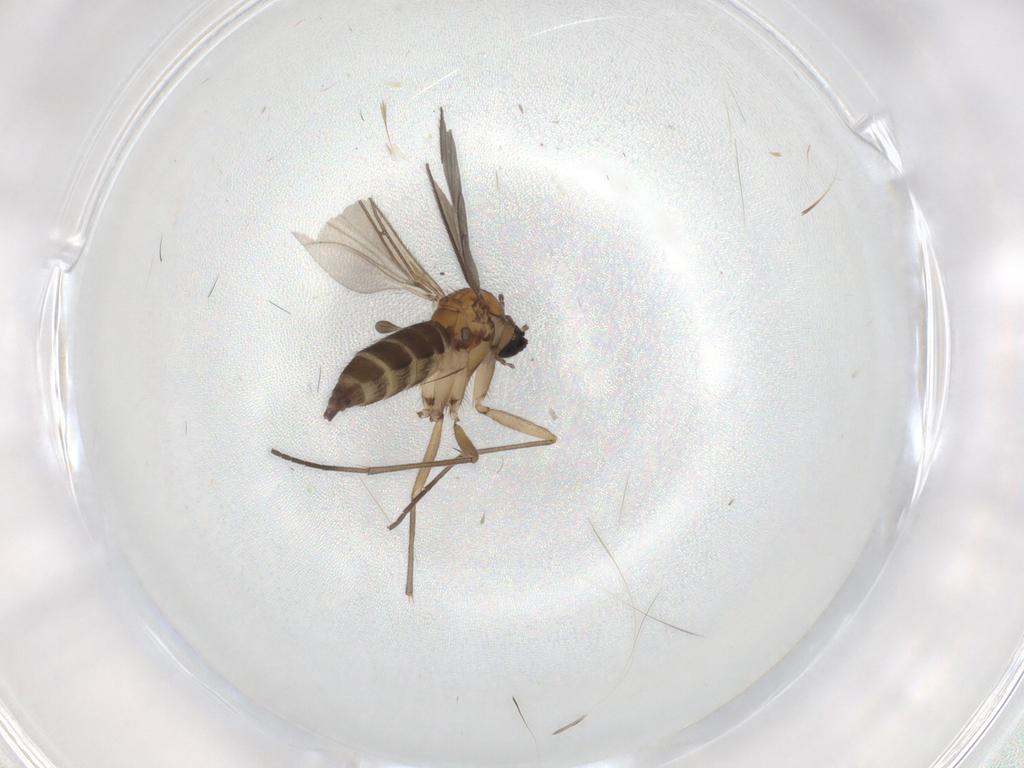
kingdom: Animalia
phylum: Arthropoda
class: Insecta
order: Diptera
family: Sciaridae
